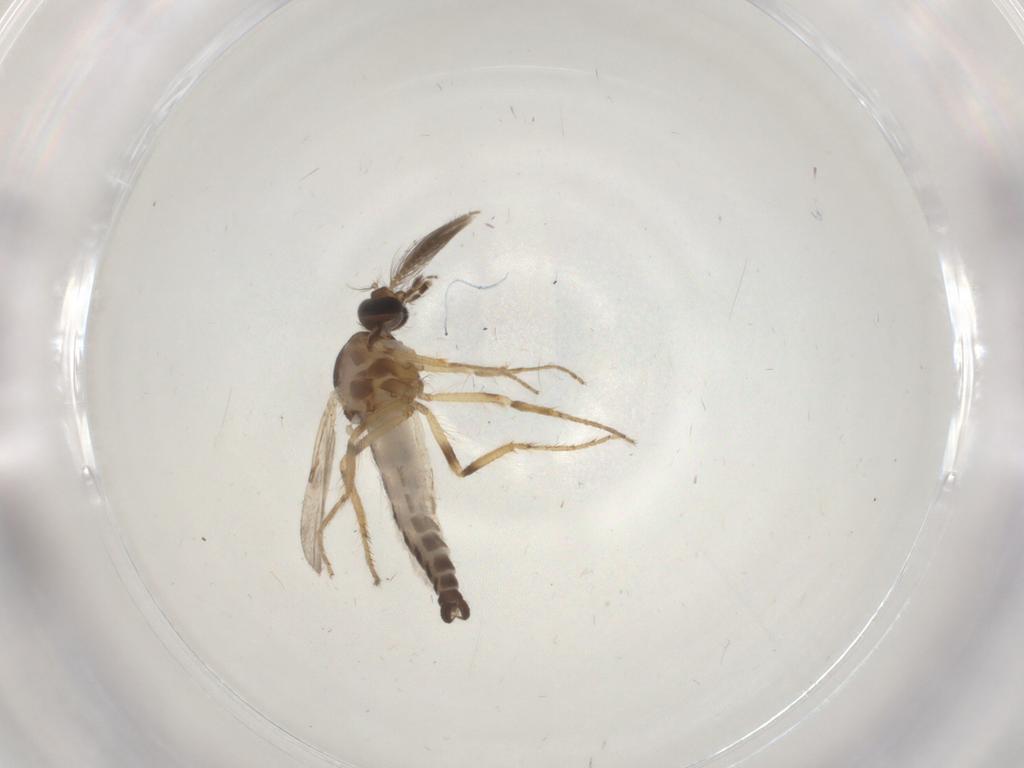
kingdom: Animalia
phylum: Arthropoda
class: Insecta
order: Diptera
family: Ceratopogonidae
